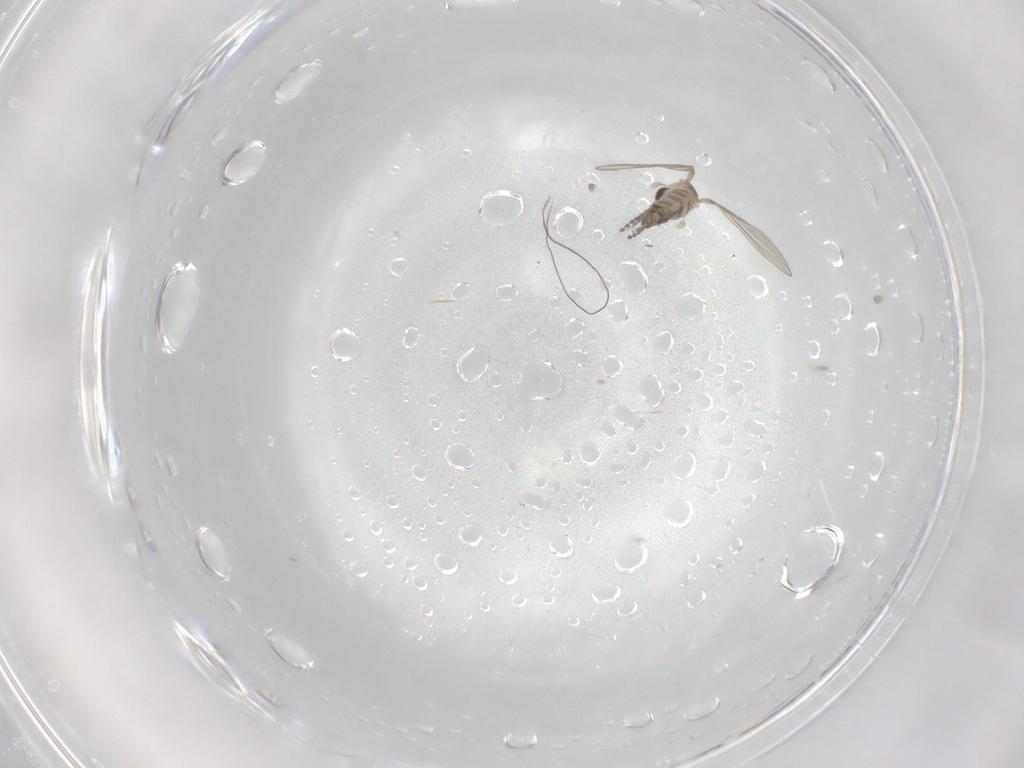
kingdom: Animalia
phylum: Arthropoda
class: Insecta
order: Diptera
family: Psychodidae
